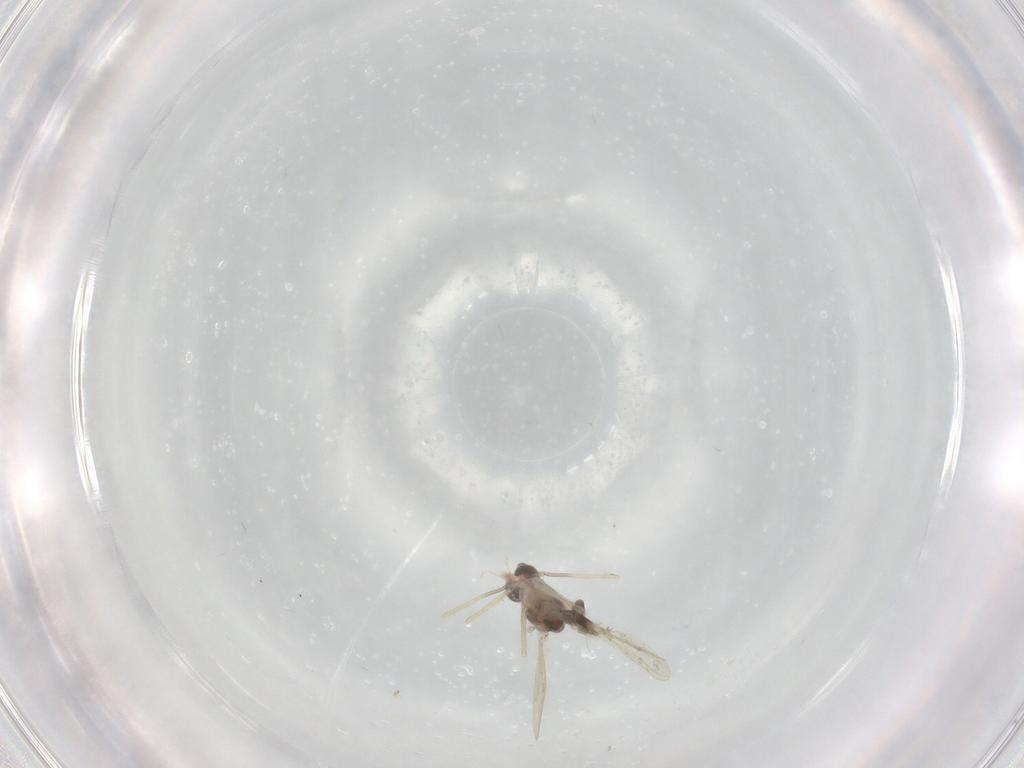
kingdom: Animalia
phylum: Arthropoda
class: Insecta
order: Diptera
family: Chironomidae
